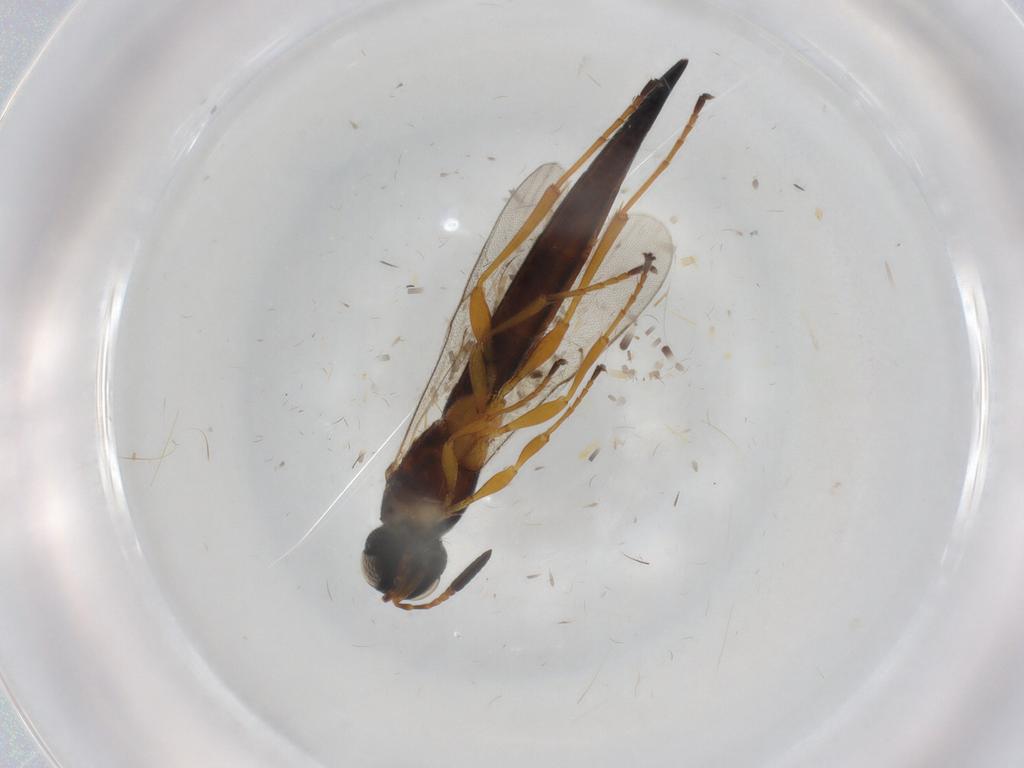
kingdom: Animalia
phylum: Arthropoda
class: Insecta
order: Hymenoptera
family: Scelionidae
